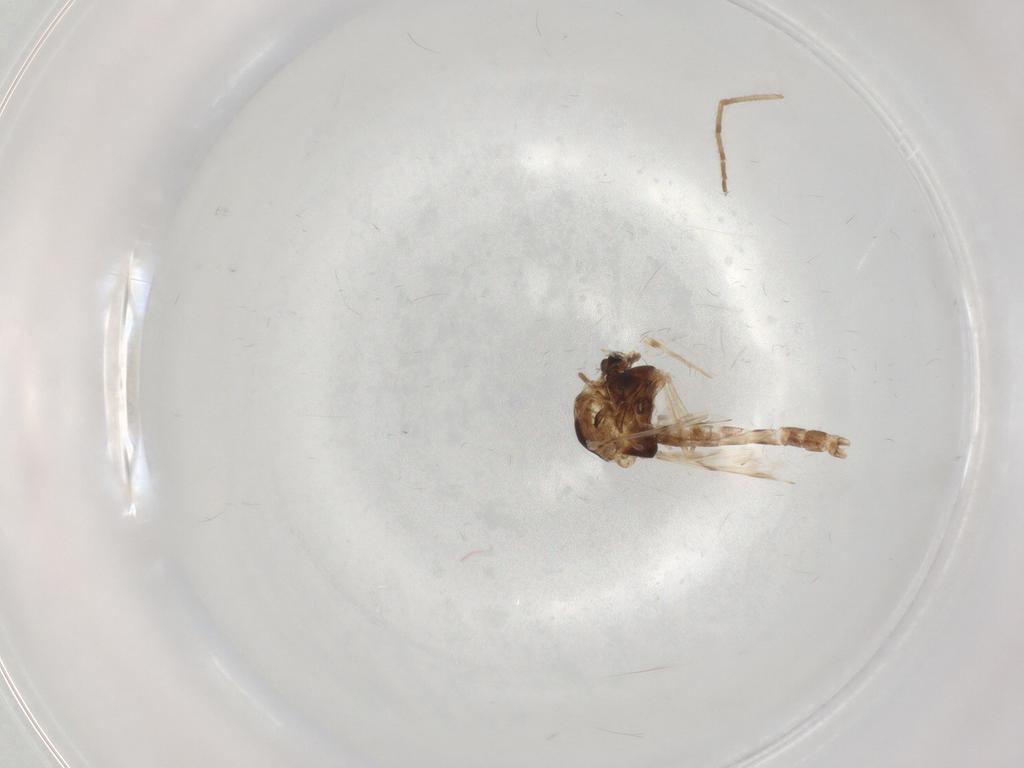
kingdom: Animalia
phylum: Arthropoda
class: Insecta
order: Diptera
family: Chironomidae
